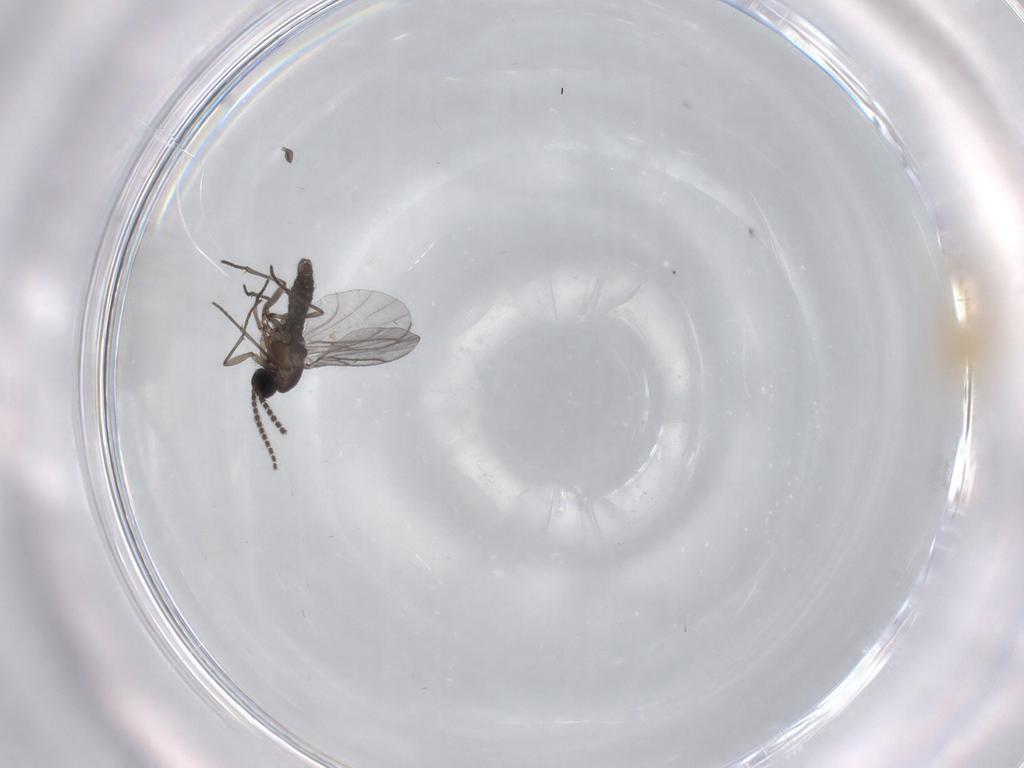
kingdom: Animalia
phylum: Arthropoda
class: Insecta
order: Diptera
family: Chironomidae
